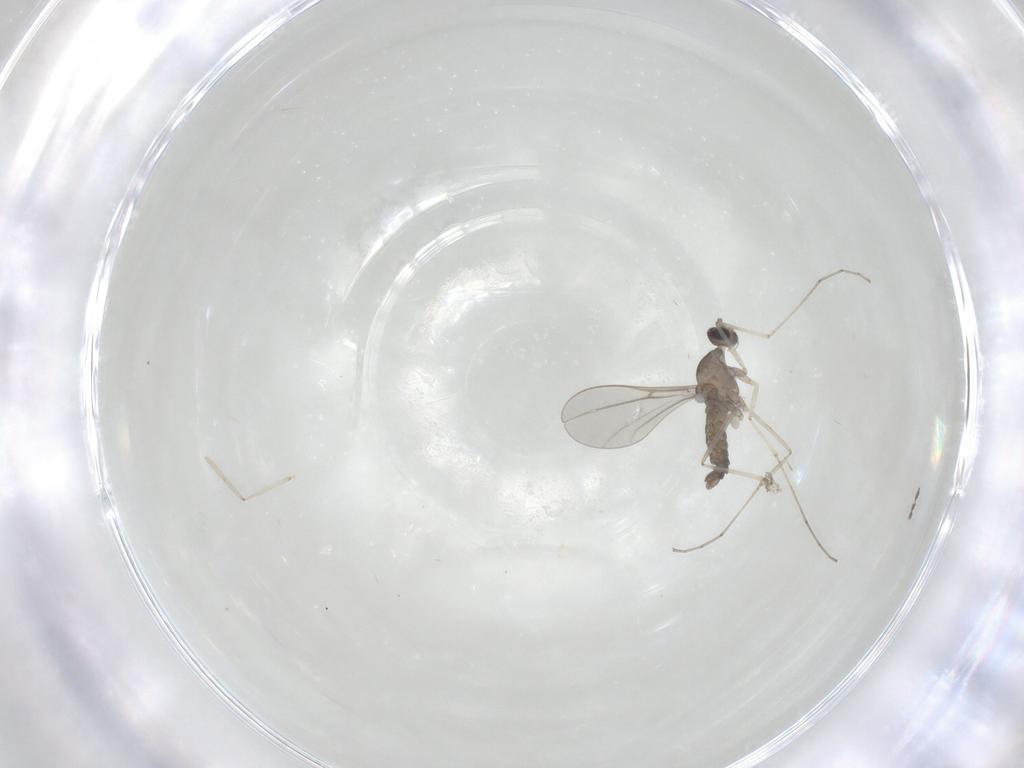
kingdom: Animalia
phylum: Arthropoda
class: Insecta
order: Diptera
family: Cecidomyiidae
